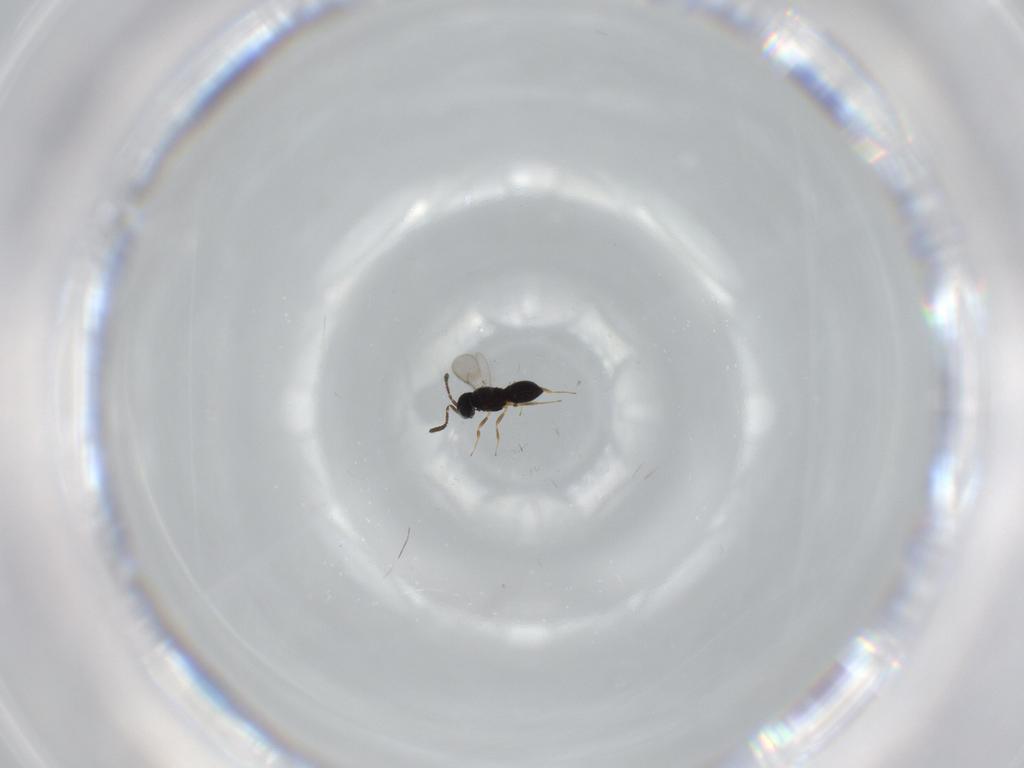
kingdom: Animalia
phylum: Arthropoda
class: Insecta
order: Hymenoptera
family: Scelionidae
